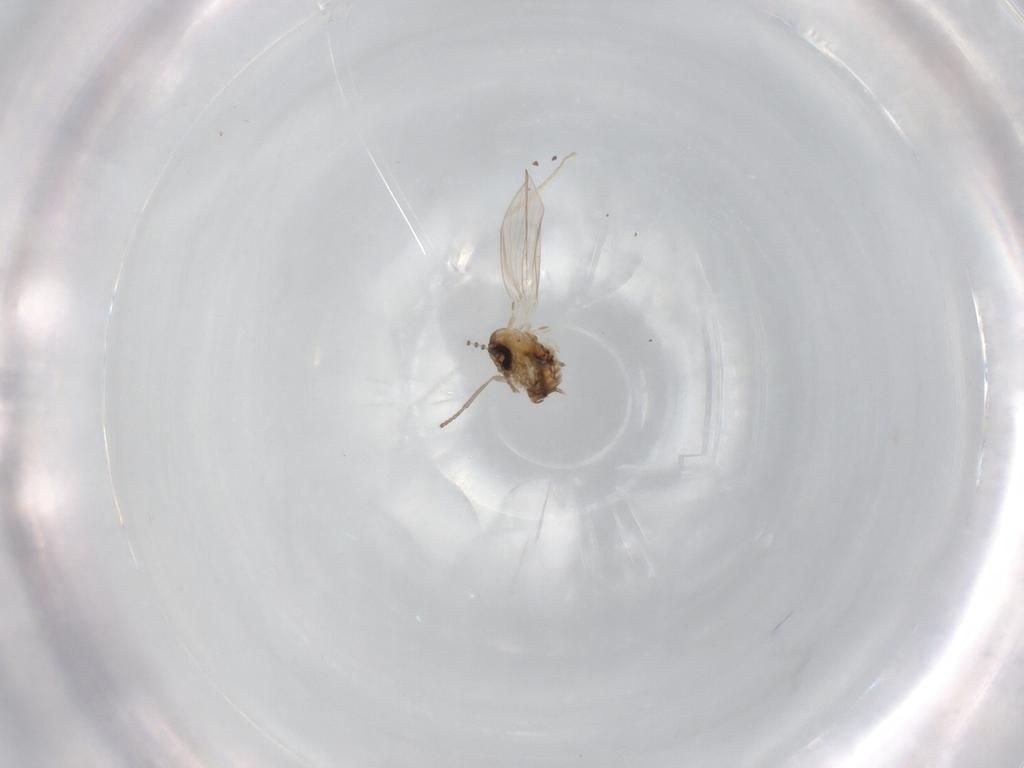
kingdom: Animalia
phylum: Arthropoda
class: Insecta
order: Diptera
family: Psychodidae
